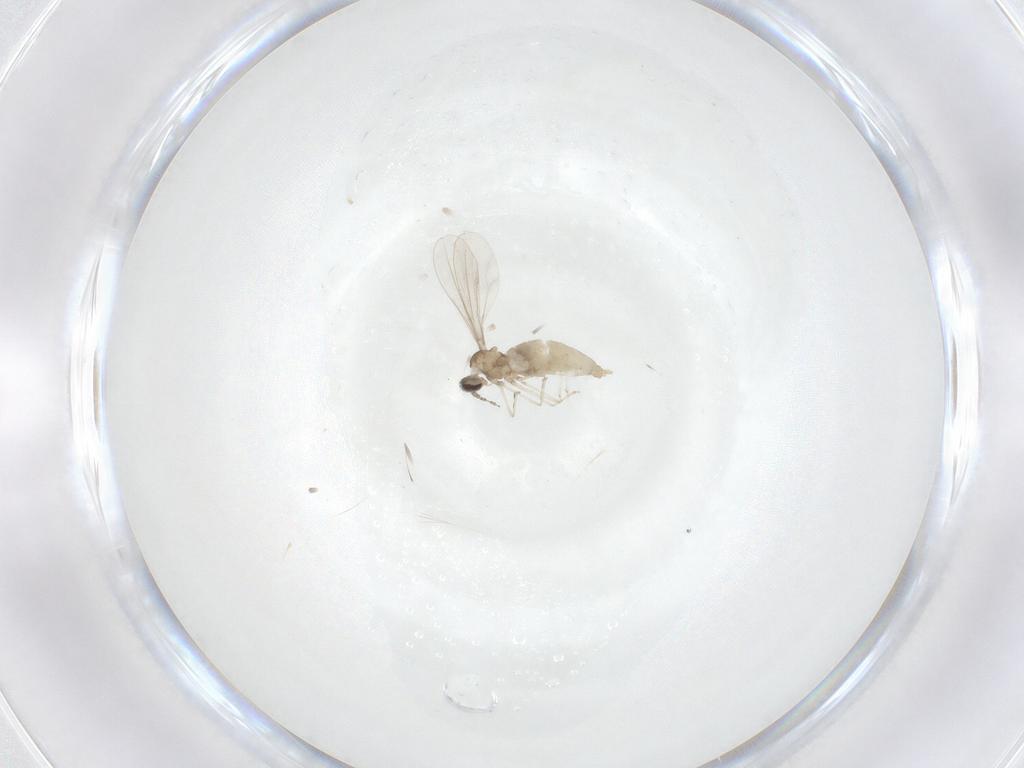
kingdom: Animalia
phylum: Arthropoda
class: Insecta
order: Diptera
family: Cecidomyiidae
